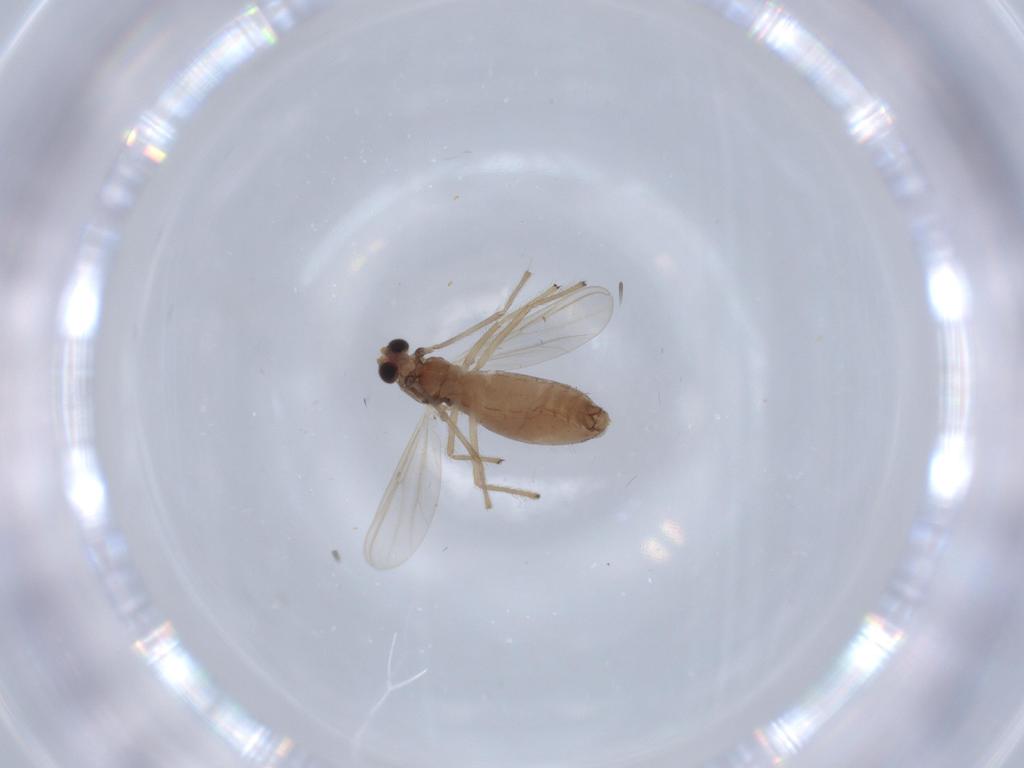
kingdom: Animalia
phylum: Arthropoda
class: Insecta
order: Diptera
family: Chironomidae
